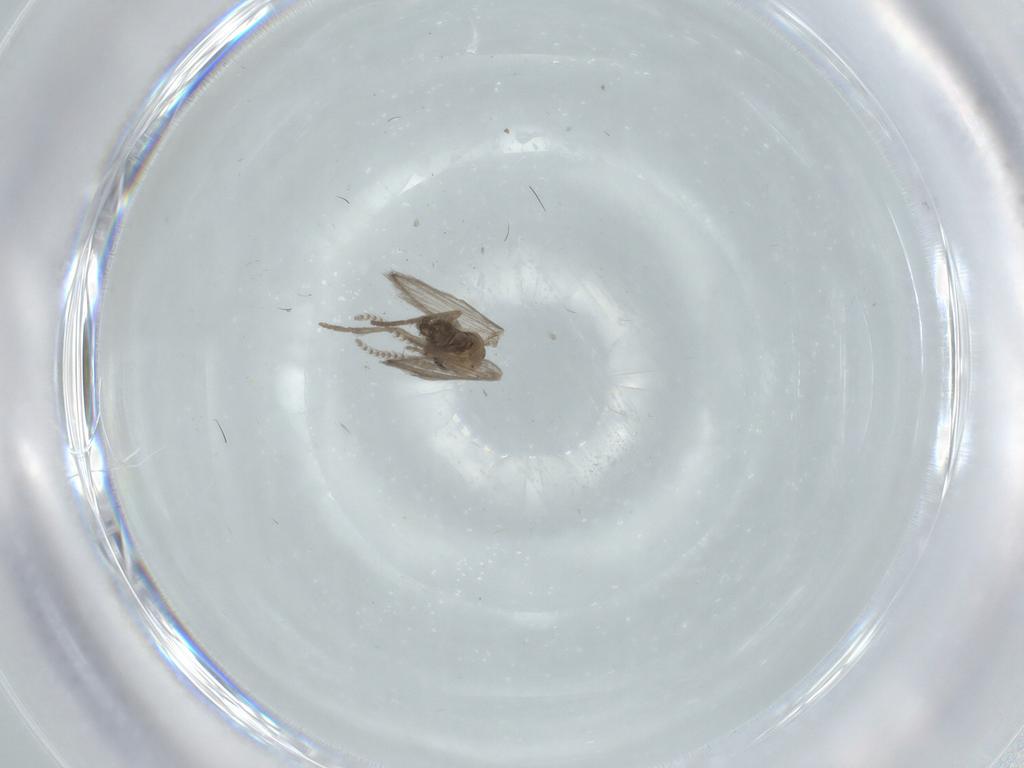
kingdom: Animalia
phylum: Arthropoda
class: Insecta
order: Diptera
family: Psychodidae
